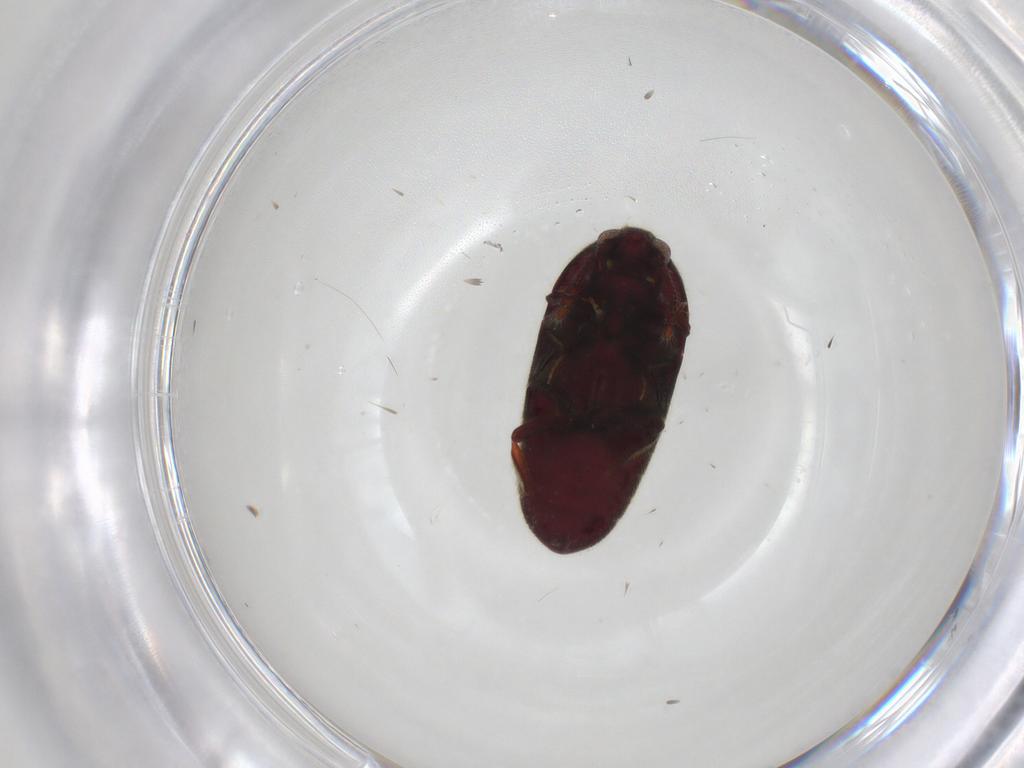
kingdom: Animalia
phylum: Arthropoda
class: Insecta
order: Coleoptera
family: Throscidae
